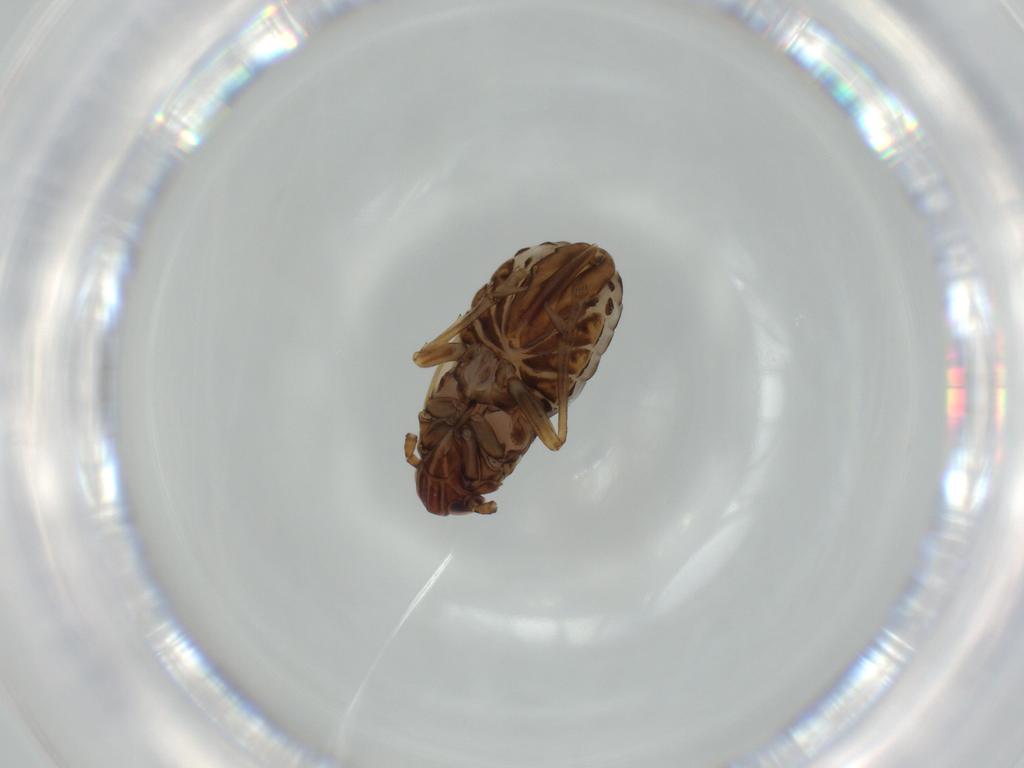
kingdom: Animalia
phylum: Arthropoda
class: Insecta
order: Hemiptera
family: Delphacidae
